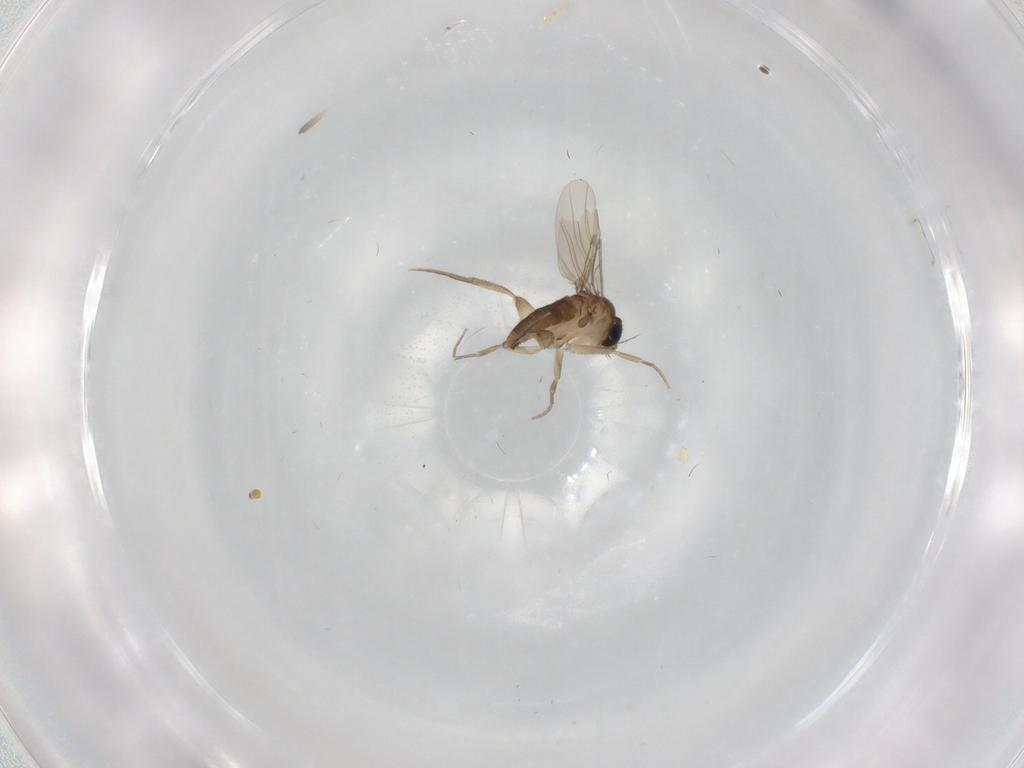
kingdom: Animalia
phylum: Arthropoda
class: Insecta
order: Diptera
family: Phoridae
